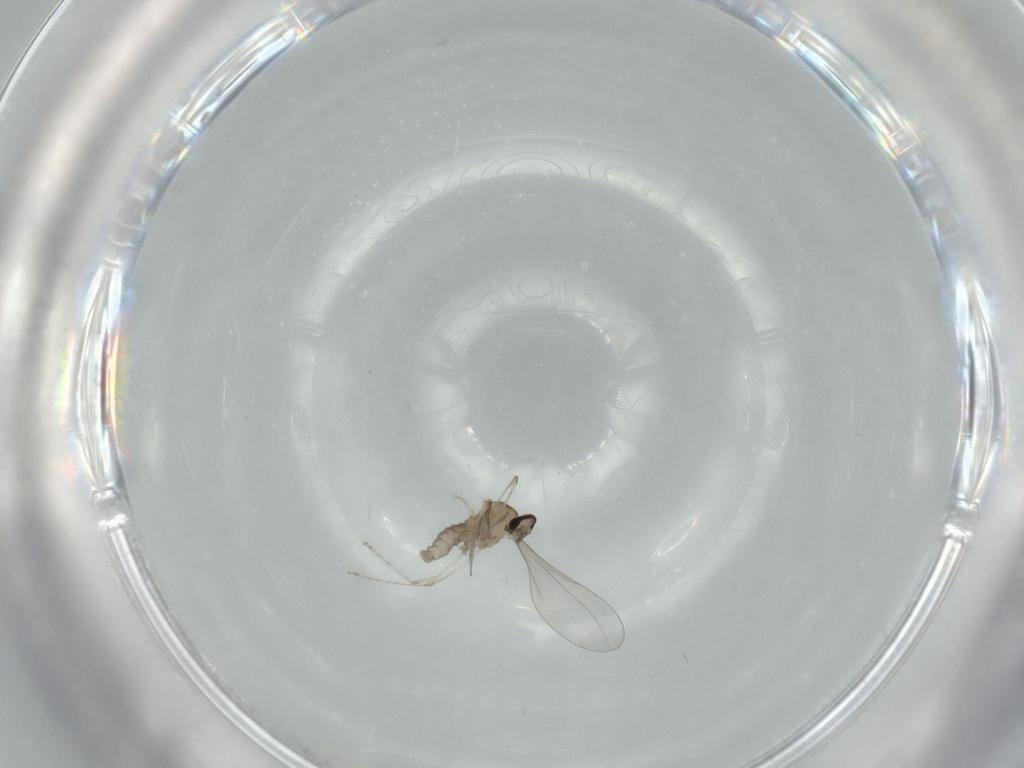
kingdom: Animalia
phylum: Arthropoda
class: Insecta
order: Diptera
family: Cecidomyiidae
